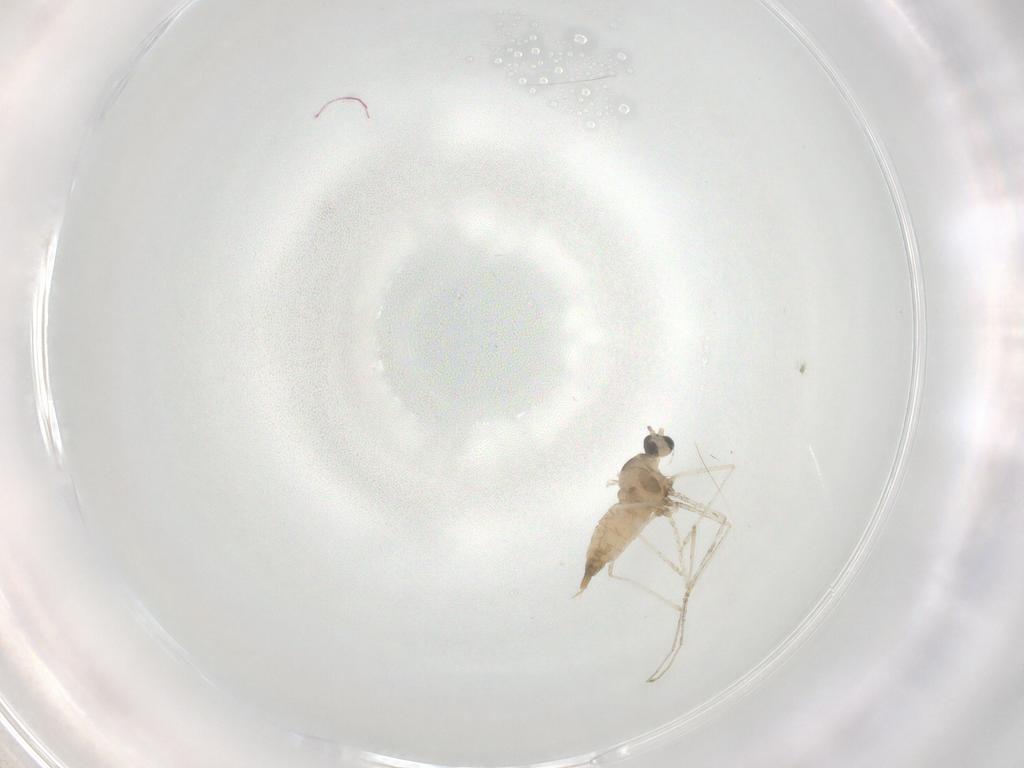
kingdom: Animalia
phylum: Arthropoda
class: Insecta
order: Diptera
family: Cecidomyiidae
